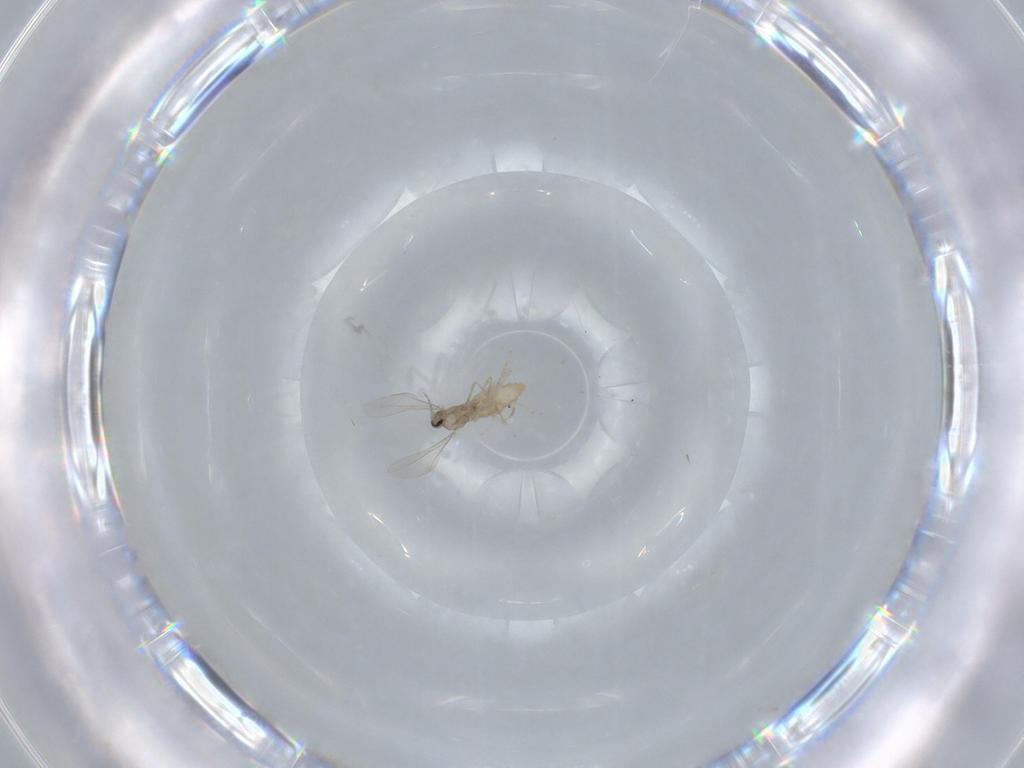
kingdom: Animalia
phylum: Arthropoda
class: Insecta
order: Diptera
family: Cecidomyiidae
